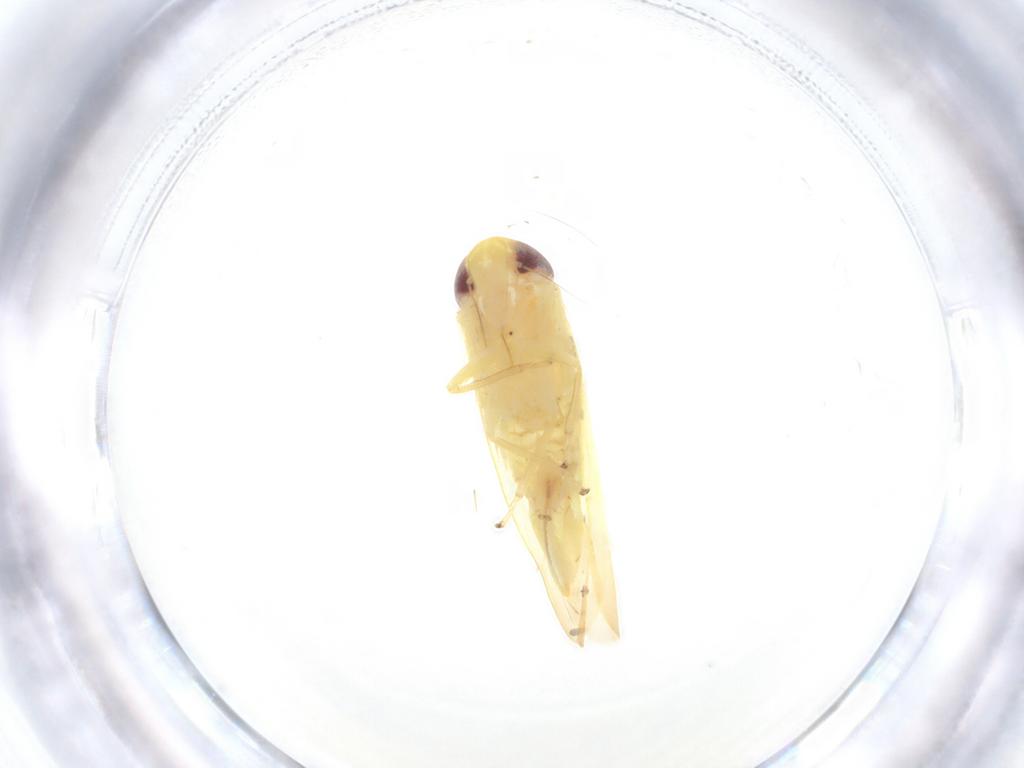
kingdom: Animalia
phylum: Arthropoda
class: Insecta
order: Hemiptera
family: Cicadellidae
